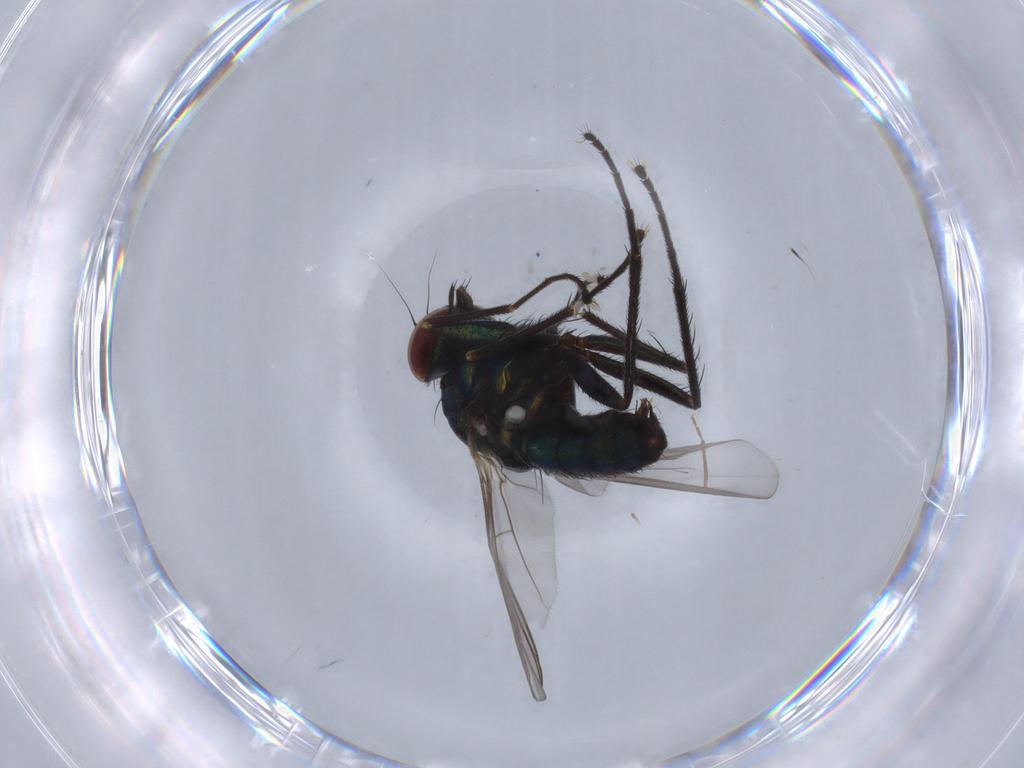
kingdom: Animalia
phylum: Arthropoda
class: Insecta
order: Diptera
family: Dolichopodidae
